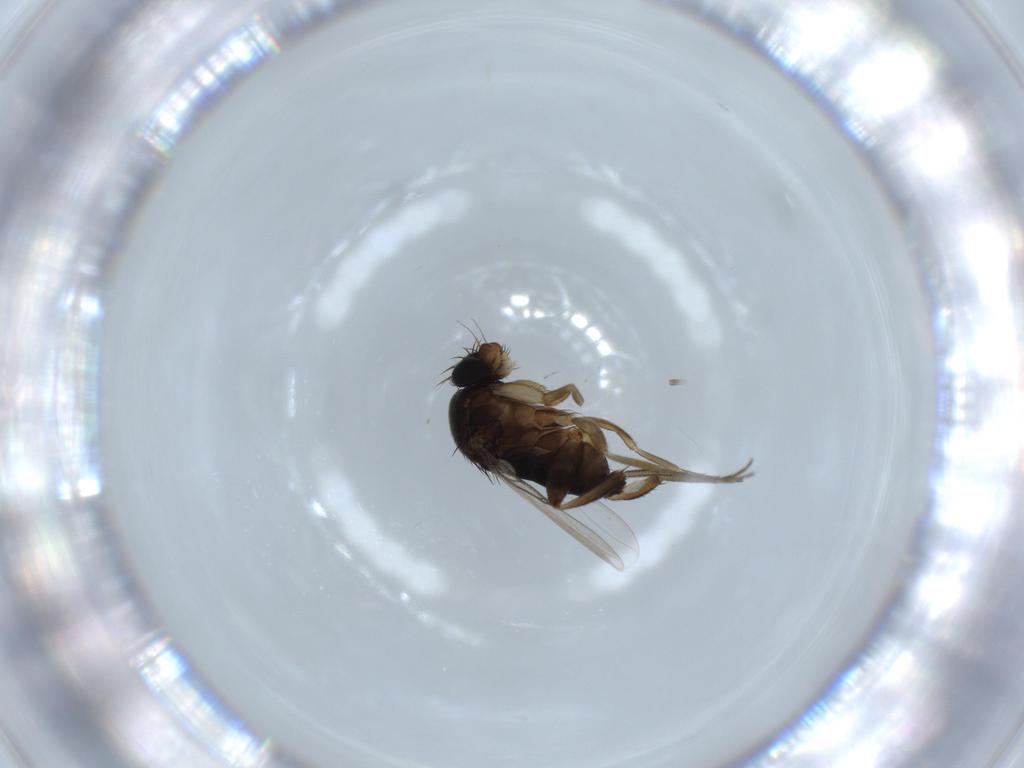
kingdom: Animalia
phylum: Arthropoda
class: Insecta
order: Diptera
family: Phoridae
